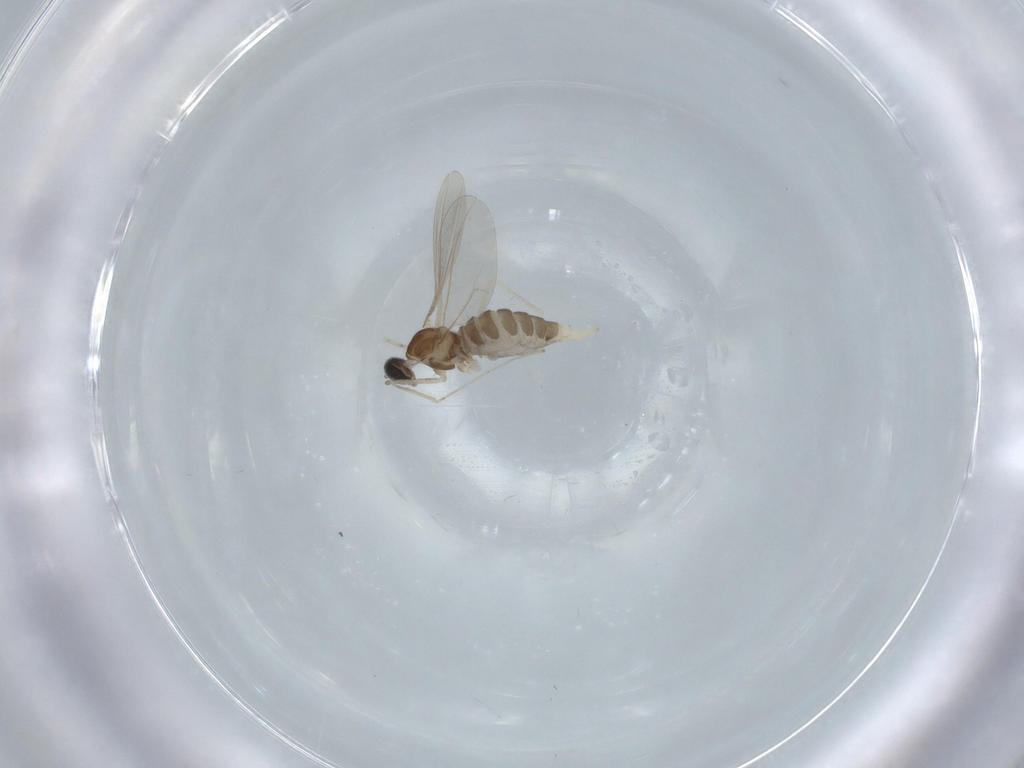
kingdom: Animalia
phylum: Arthropoda
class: Insecta
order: Diptera
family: Cecidomyiidae
